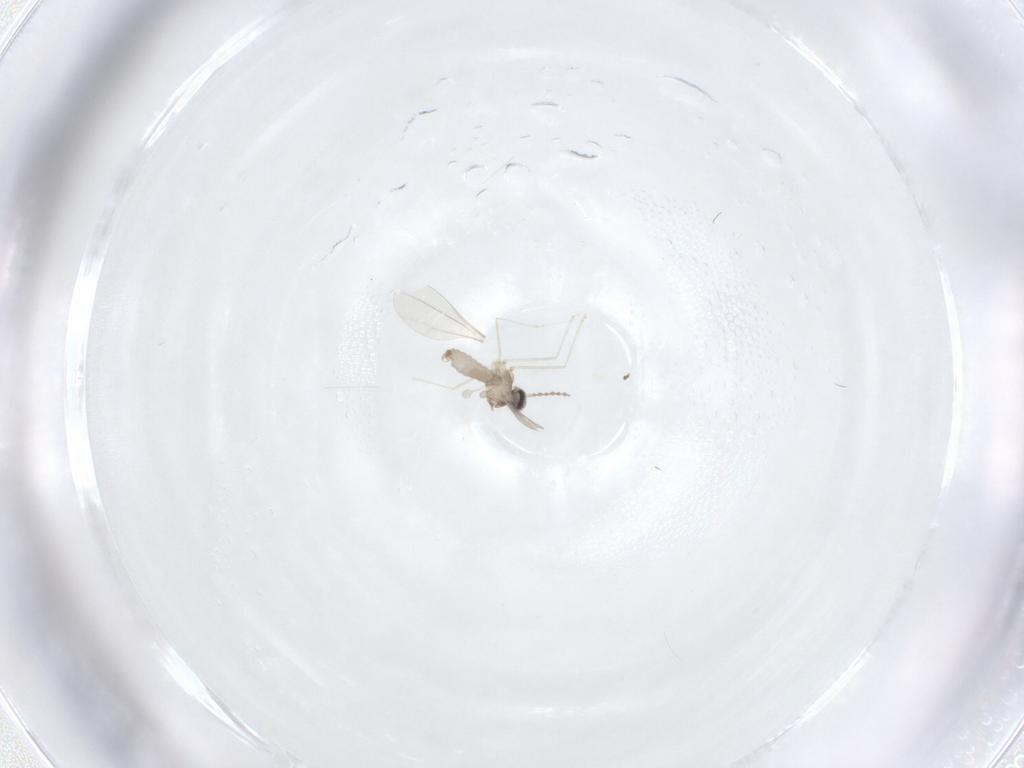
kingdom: Animalia
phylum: Arthropoda
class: Insecta
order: Diptera
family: Cecidomyiidae
